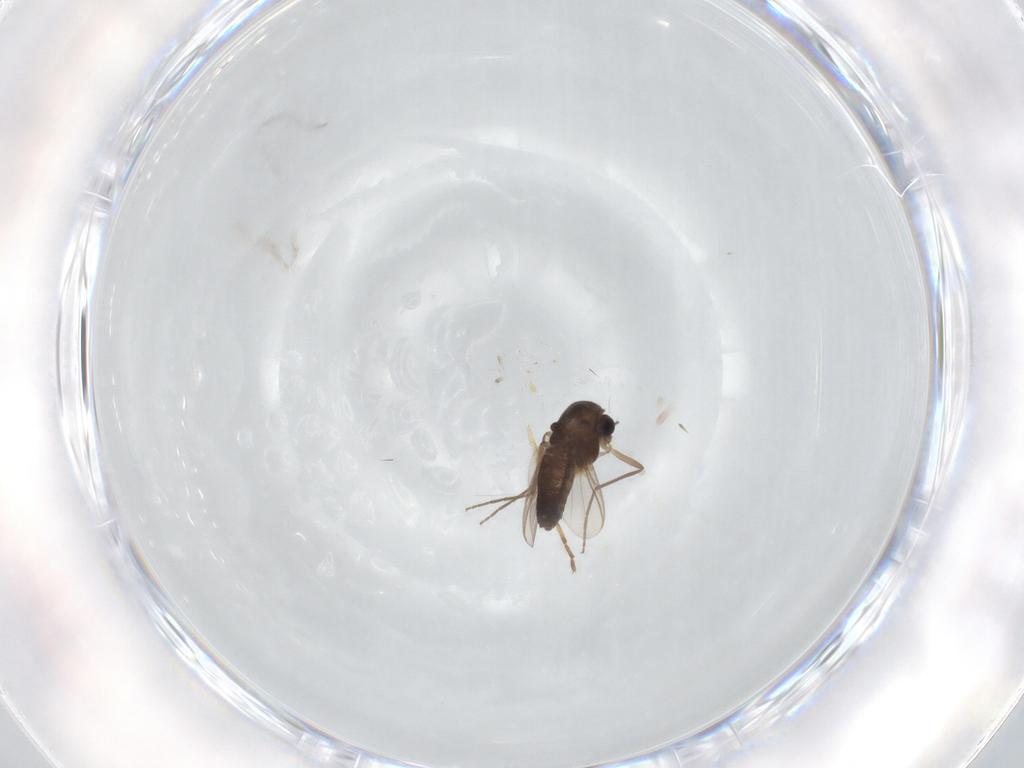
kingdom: Animalia
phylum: Arthropoda
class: Insecta
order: Diptera
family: Chironomidae
